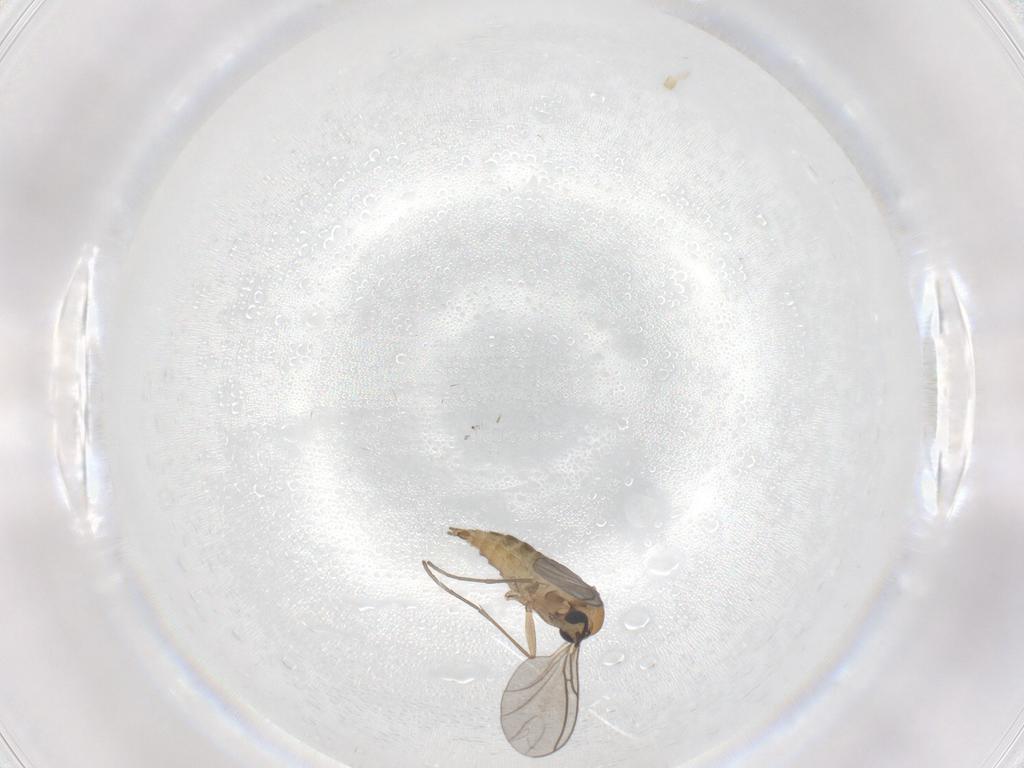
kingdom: Animalia
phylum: Arthropoda
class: Insecta
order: Diptera
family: Sciaridae
